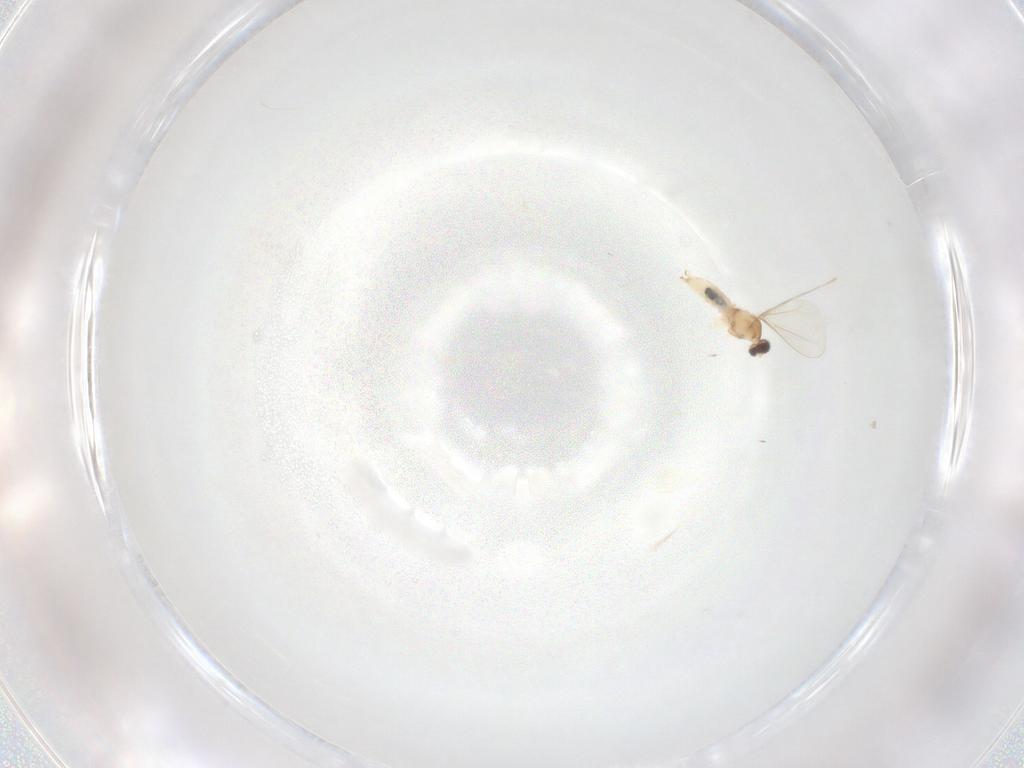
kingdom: Animalia
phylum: Arthropoda
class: Insecta
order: Diptera
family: Cecidomyiidae
